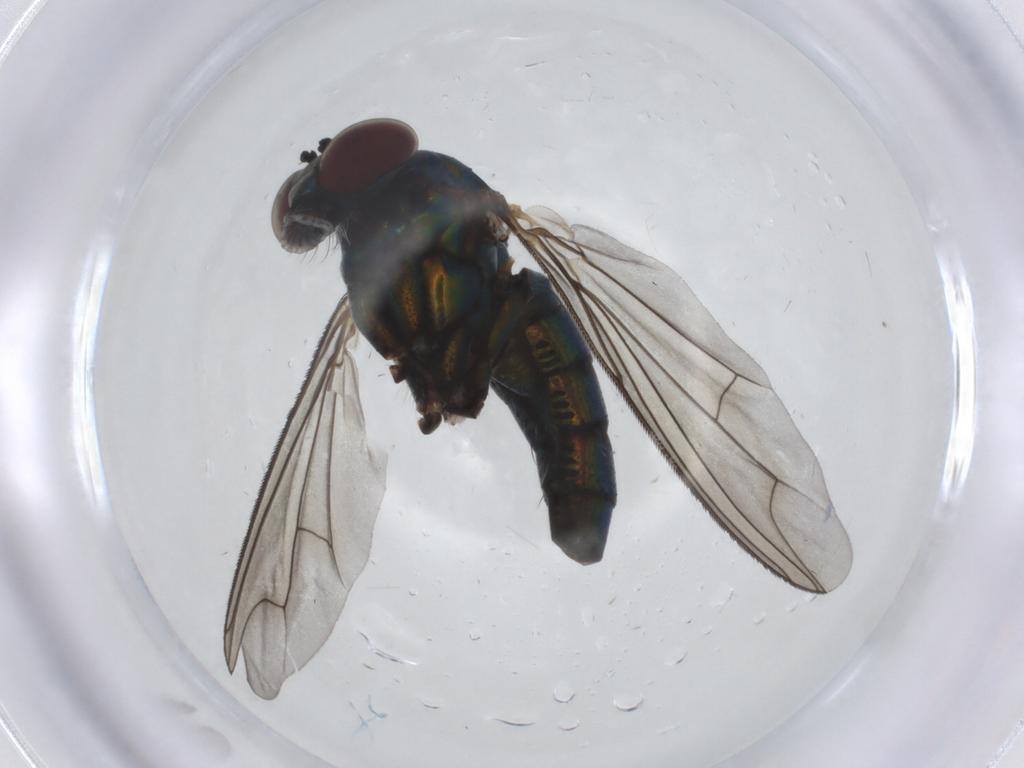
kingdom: Animalia
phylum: Arthropoda
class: Insecta
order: Diptera
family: Dolichopodidae
